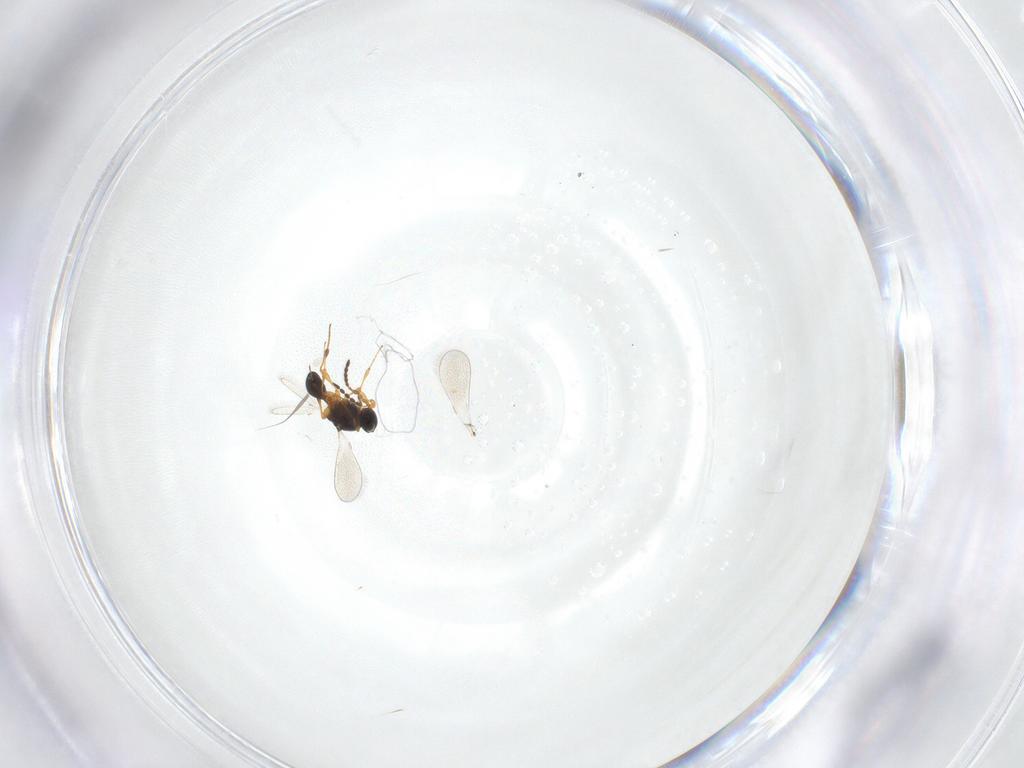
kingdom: Animalia
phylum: Arthropoda
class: Insecta
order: Hymenoptera
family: Platygastridae
